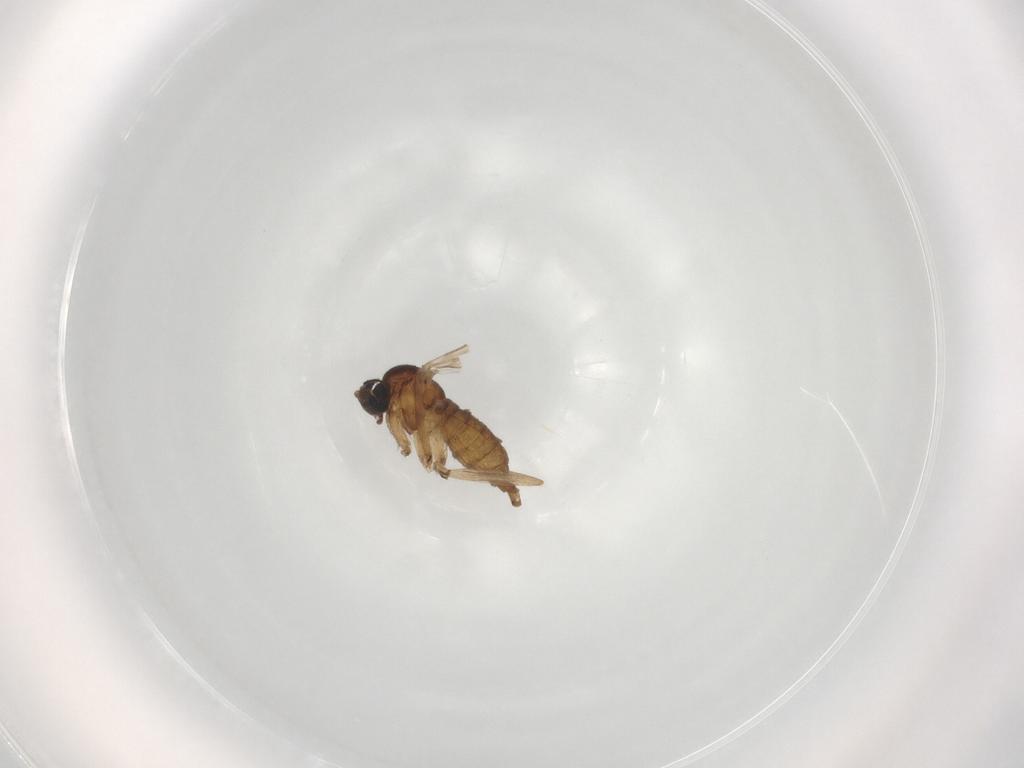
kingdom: Animalia
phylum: Arthropoda
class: Insecta
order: Diptera
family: Sciaridae
